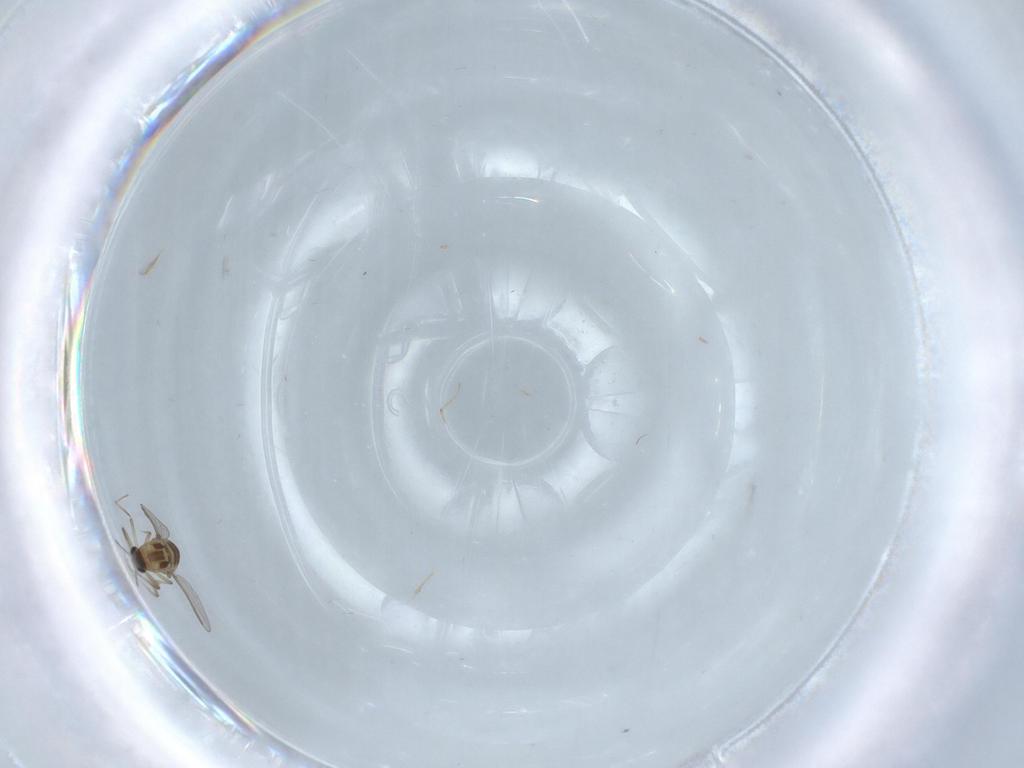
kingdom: Animalia
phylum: Arthropoda
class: Insecta
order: Diptera
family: Chironomidae
